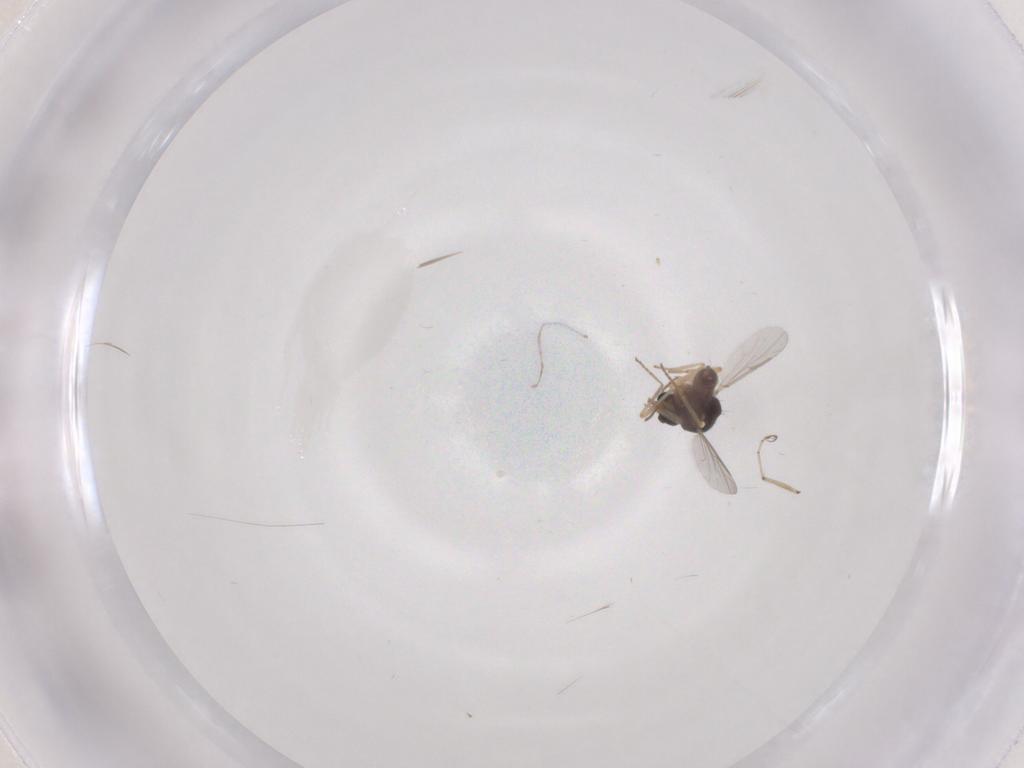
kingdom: Animalia
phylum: Arthropoda
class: Insecta
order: Diptera
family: Ceratopogonidae
